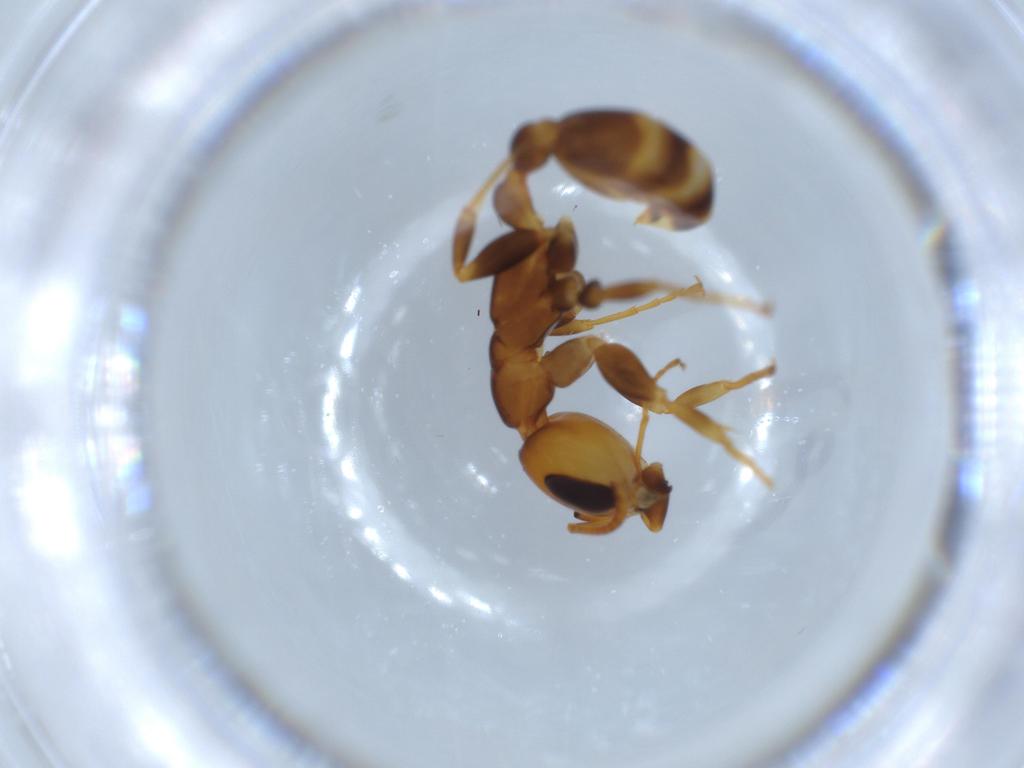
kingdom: Animalia
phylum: Arthropoda
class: Insecta
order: Hymenoptera
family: Formicidae
